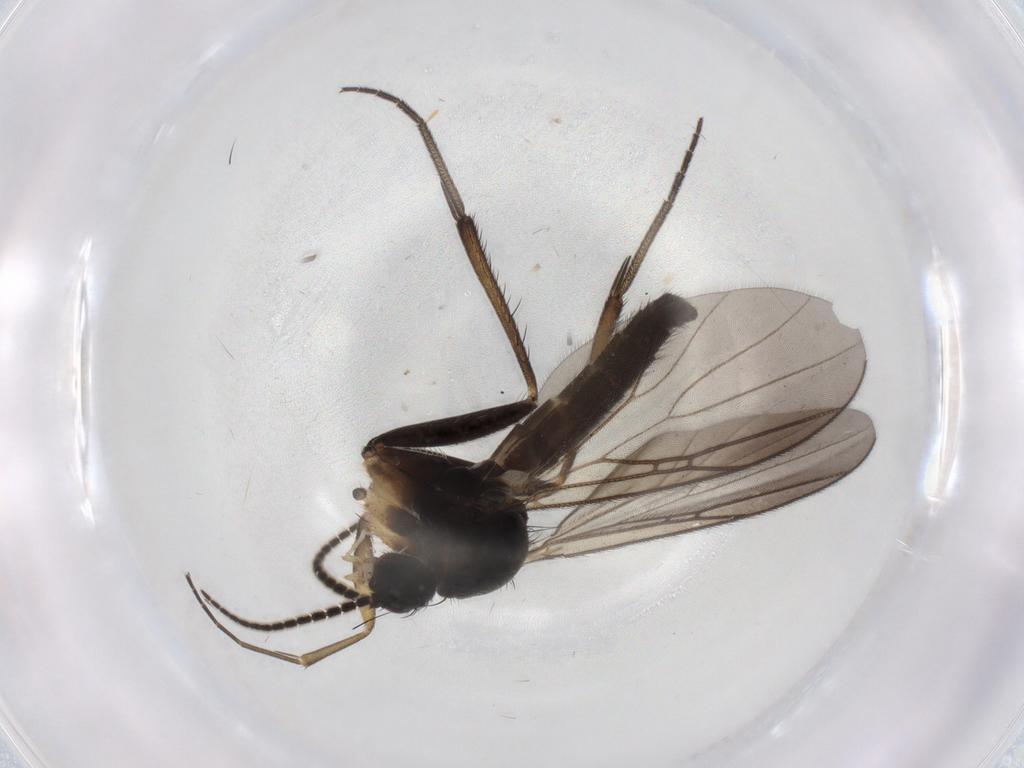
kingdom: Animalia
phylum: Arthropoda
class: Insecta
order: Diptera
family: Mycetophilidae
